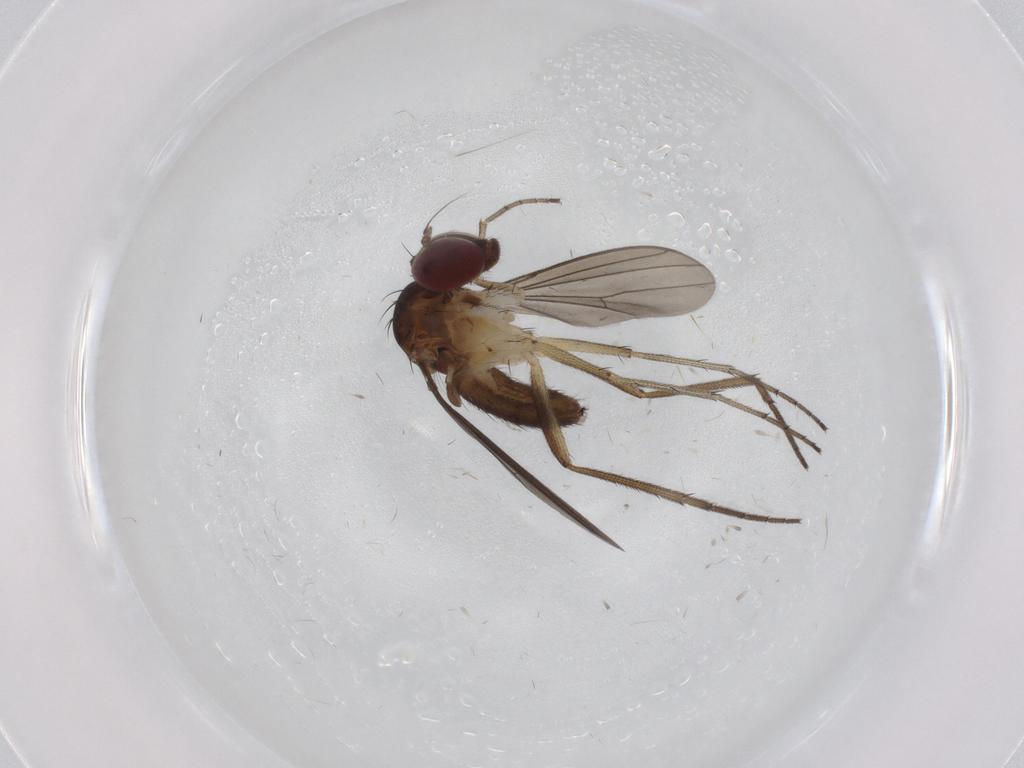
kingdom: Animalia
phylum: Arthropoda
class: Insecta
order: Diptera
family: Dolichopodidae
